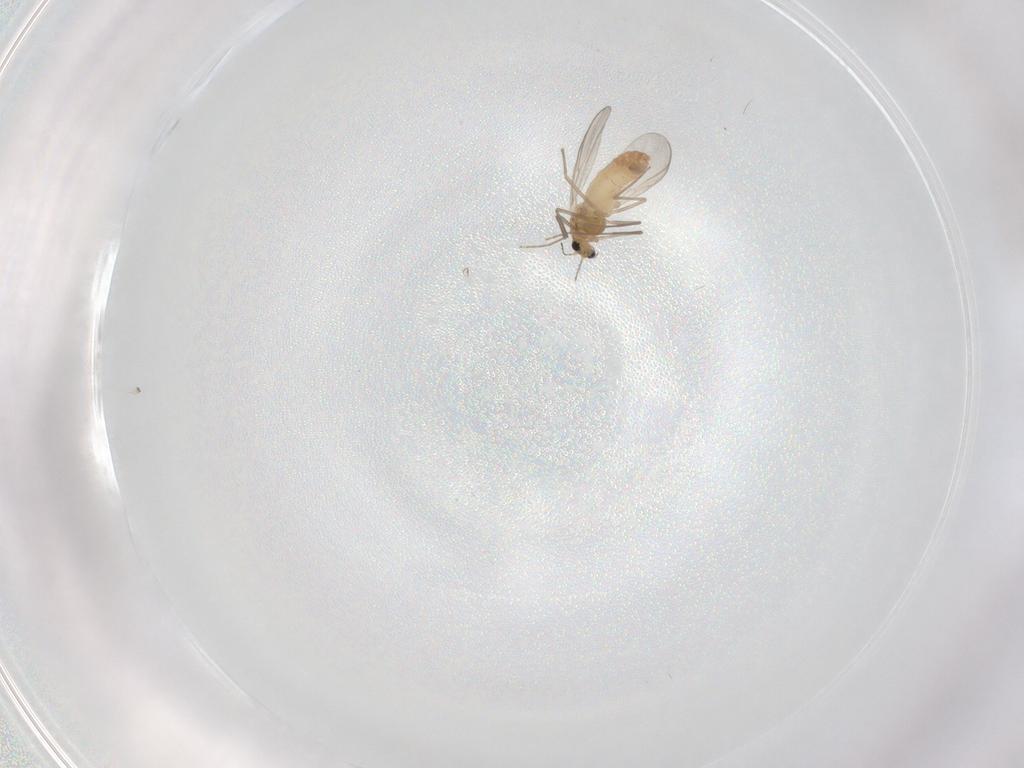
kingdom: Animalia
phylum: Arthropoda
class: Insecta
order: Diptera
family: Chironomidae
